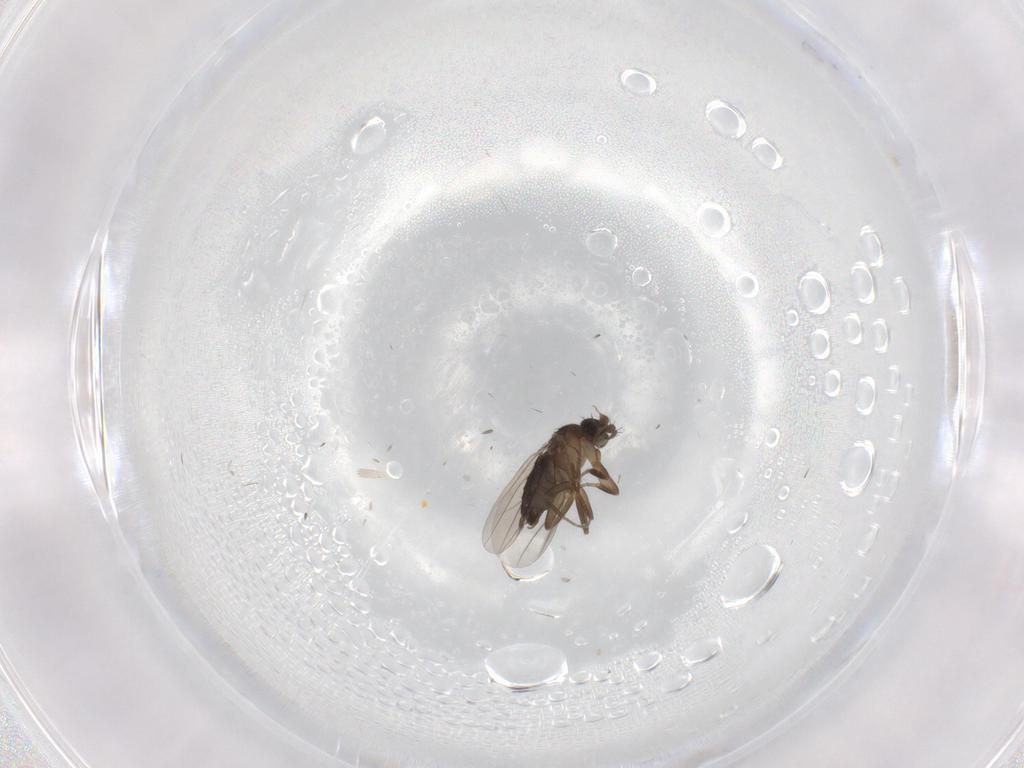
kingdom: Animalia
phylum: Arthropoda
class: Insecta
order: Diptera
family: Phoridae
